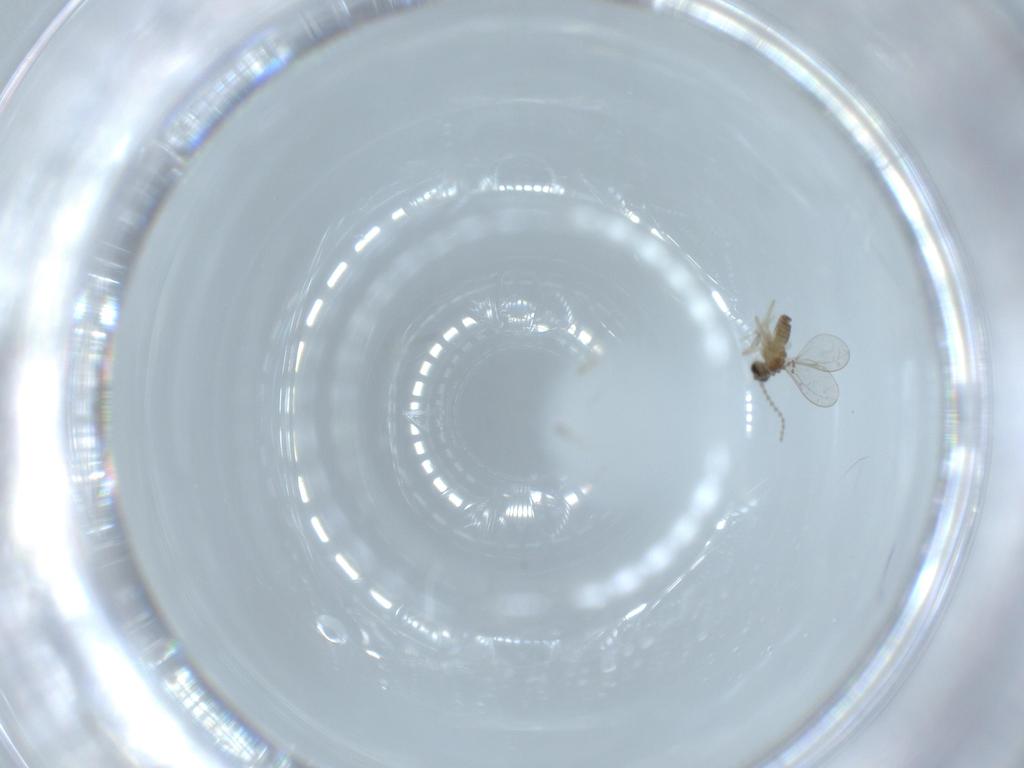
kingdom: Animalia
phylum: Arthropoda
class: Insecta
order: Diptera
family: Cecidomyiidae
